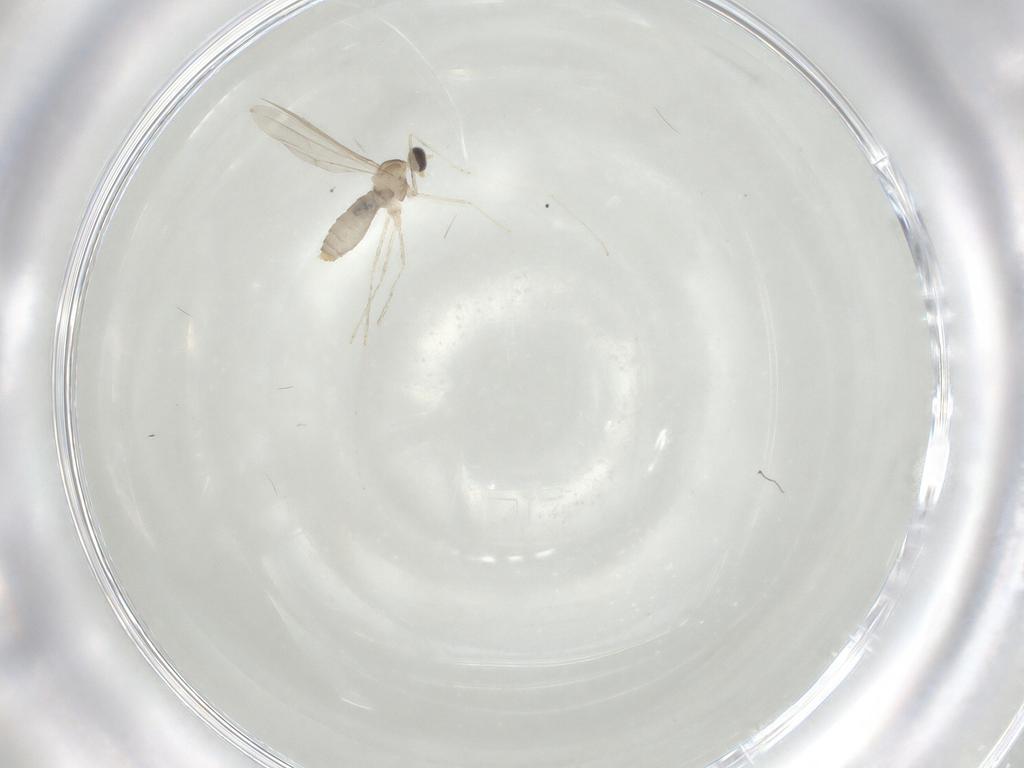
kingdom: Animalia
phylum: Arthropoda
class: Insecta
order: Diptera
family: Cecidomyiidae
